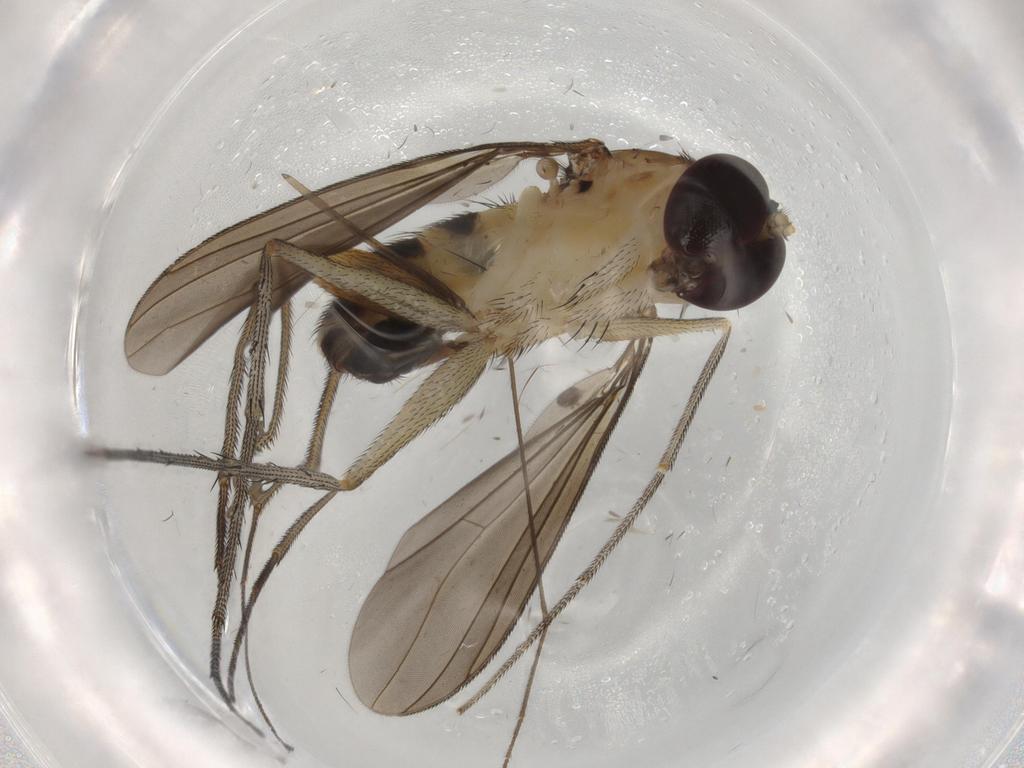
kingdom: Animalia
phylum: Arthropoda
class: Insecta
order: Diptera
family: Cecidomyiidae
